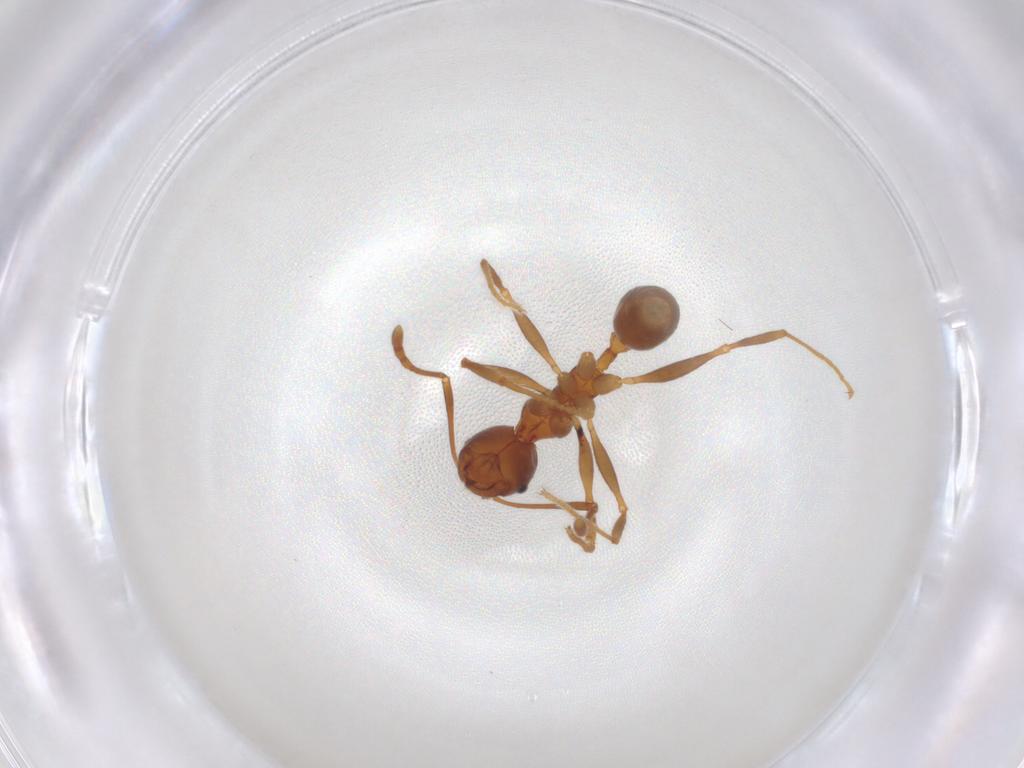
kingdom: Animalia
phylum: Arthropoda
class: Insecta
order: Hymenoptera
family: Formicidae
